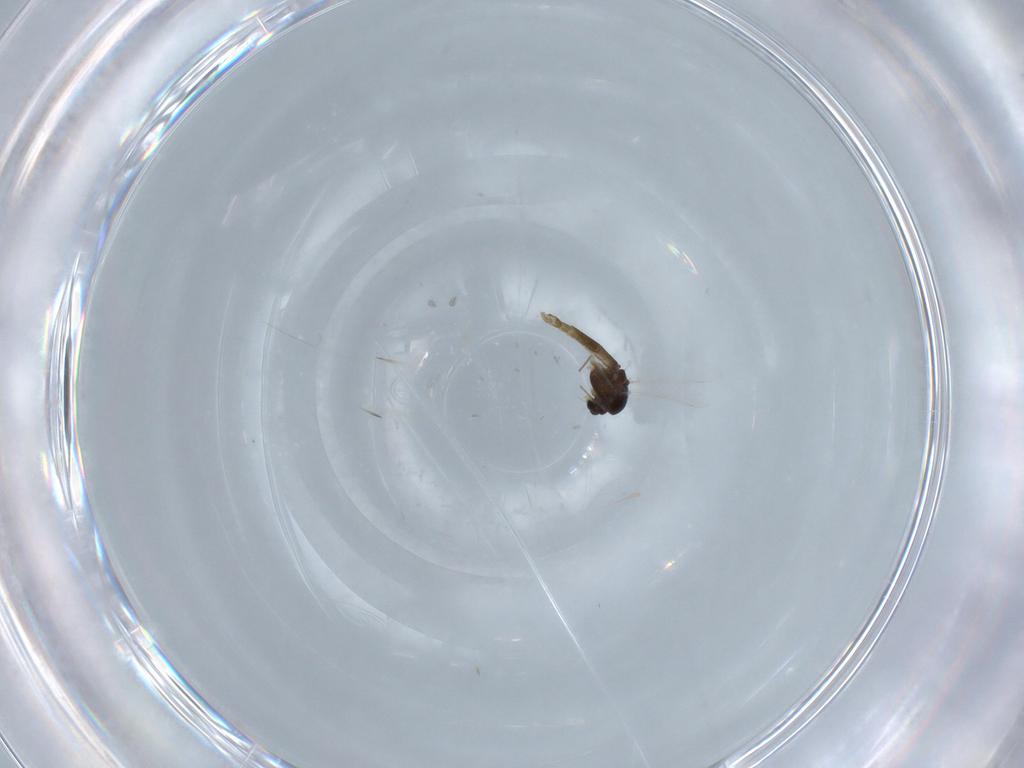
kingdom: Animalia
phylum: Arthropoda
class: Insecta
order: Diptera
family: Chironomidae
